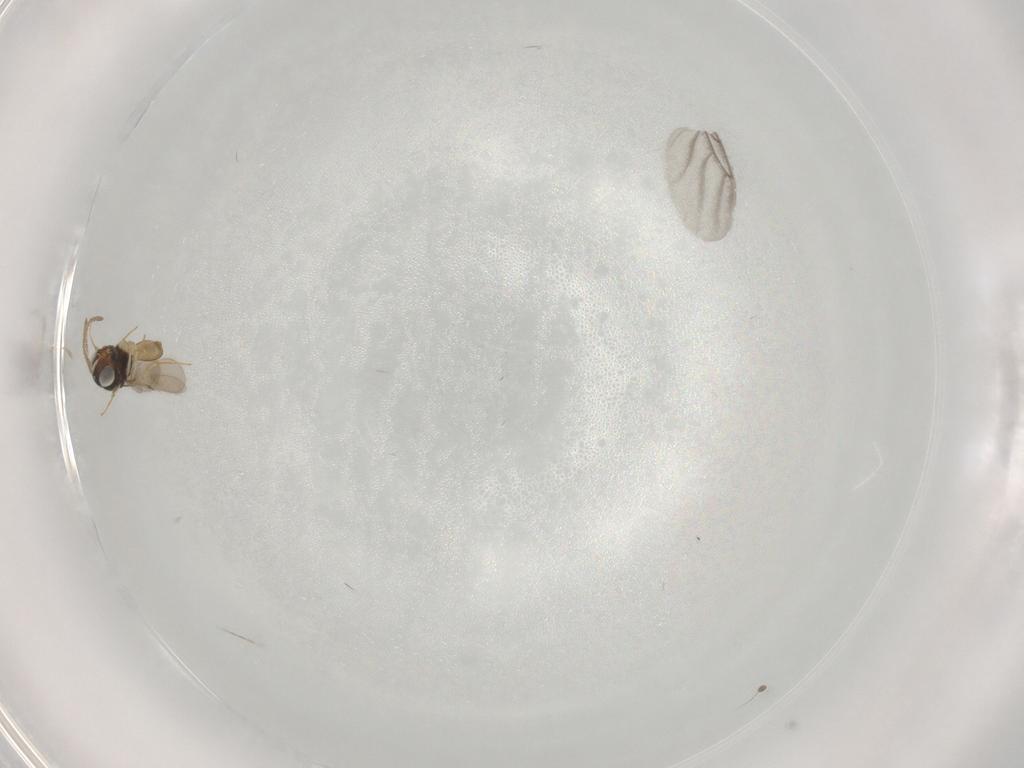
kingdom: Animalia
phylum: Arthropoda
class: Insecta
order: Hymenoptera
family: Scelionidae
